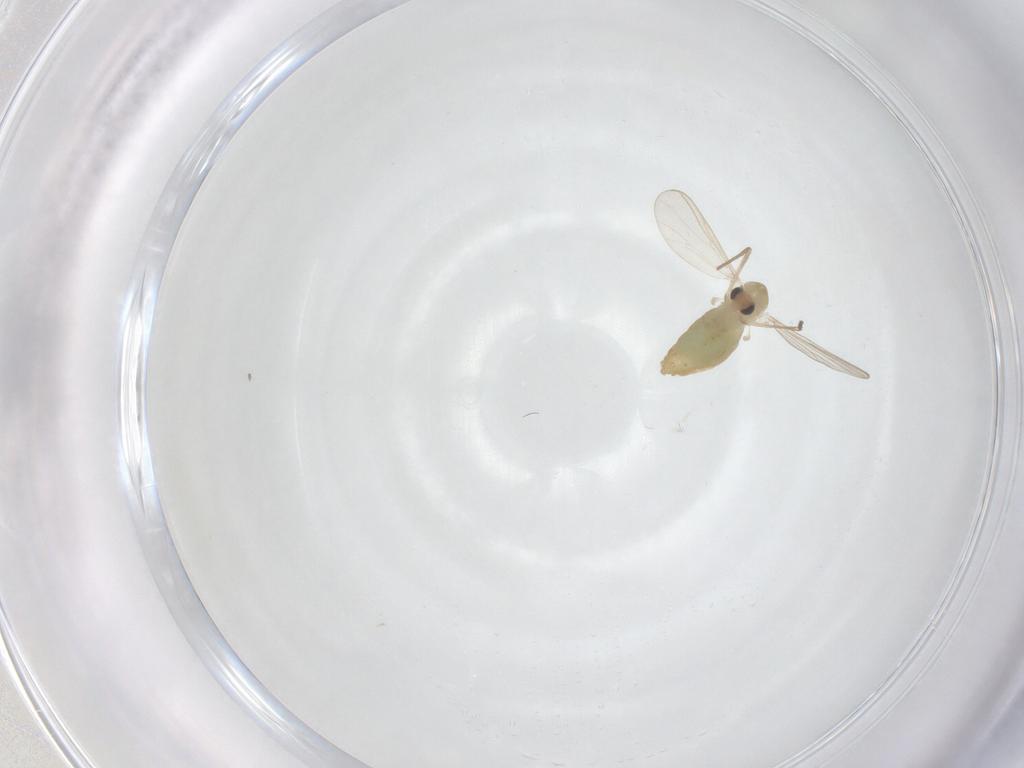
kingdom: Animalia
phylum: Arthropoda
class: Insecta
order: Diptera
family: Chironomidae
